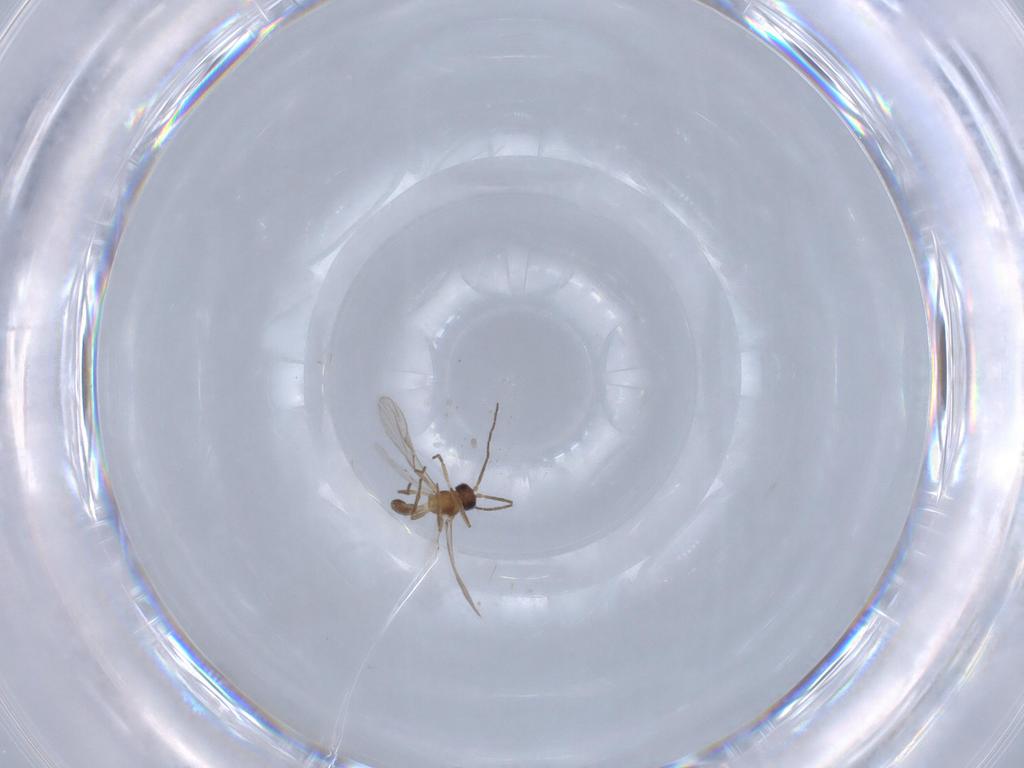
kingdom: Animalia
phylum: Arthropoda
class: Insecta
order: Hymenoptera
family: Braconidae
